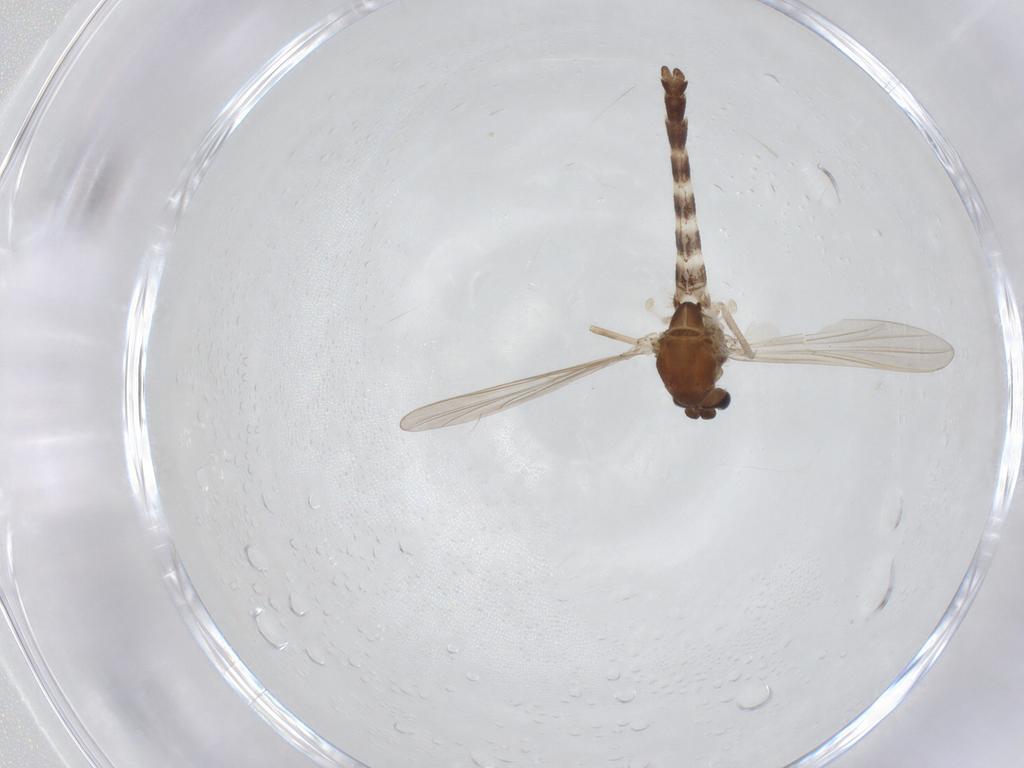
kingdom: Animalia
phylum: Arthropoda
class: Insecta
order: Diptera
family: Chironomidae
